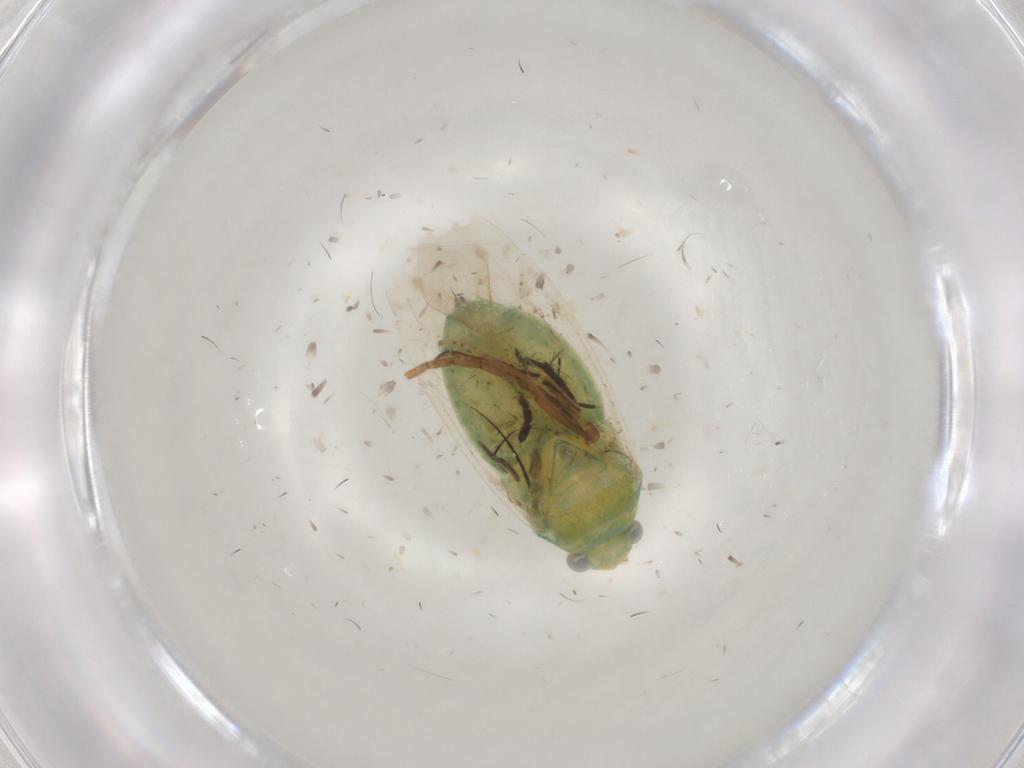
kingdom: Animalia
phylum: Arthropoda
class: Insecta
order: Hemiptera
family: Miridae
